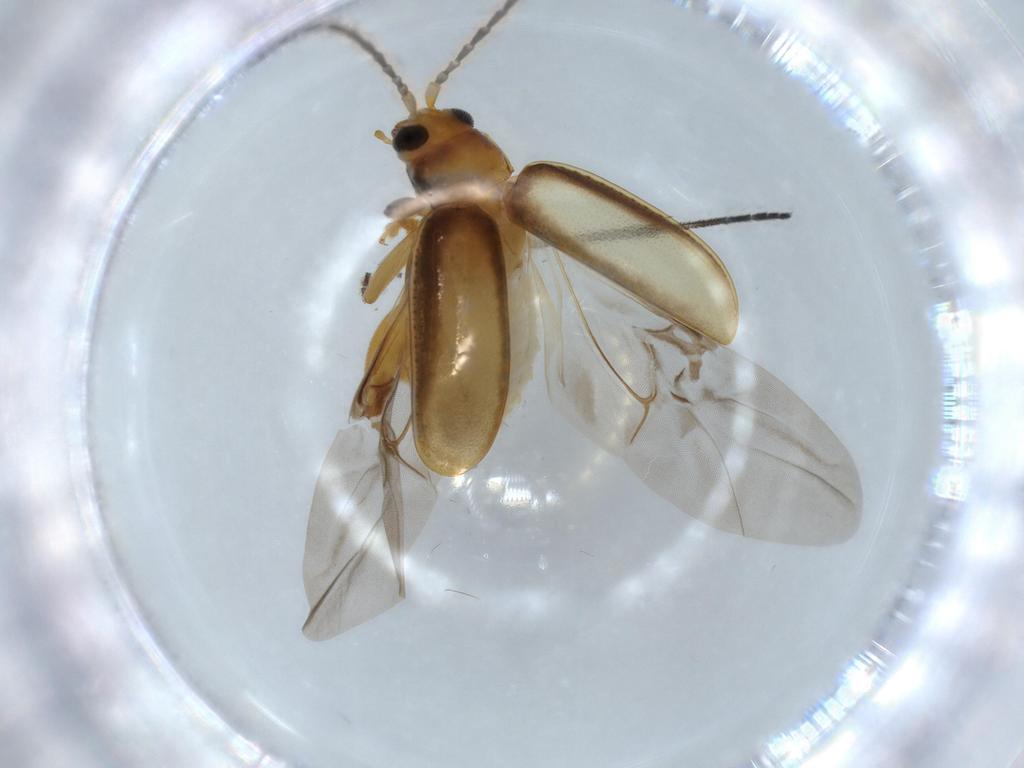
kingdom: Animalia
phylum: Arthropoda
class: Insecta
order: Coleoptera
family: Chrysomelidae
